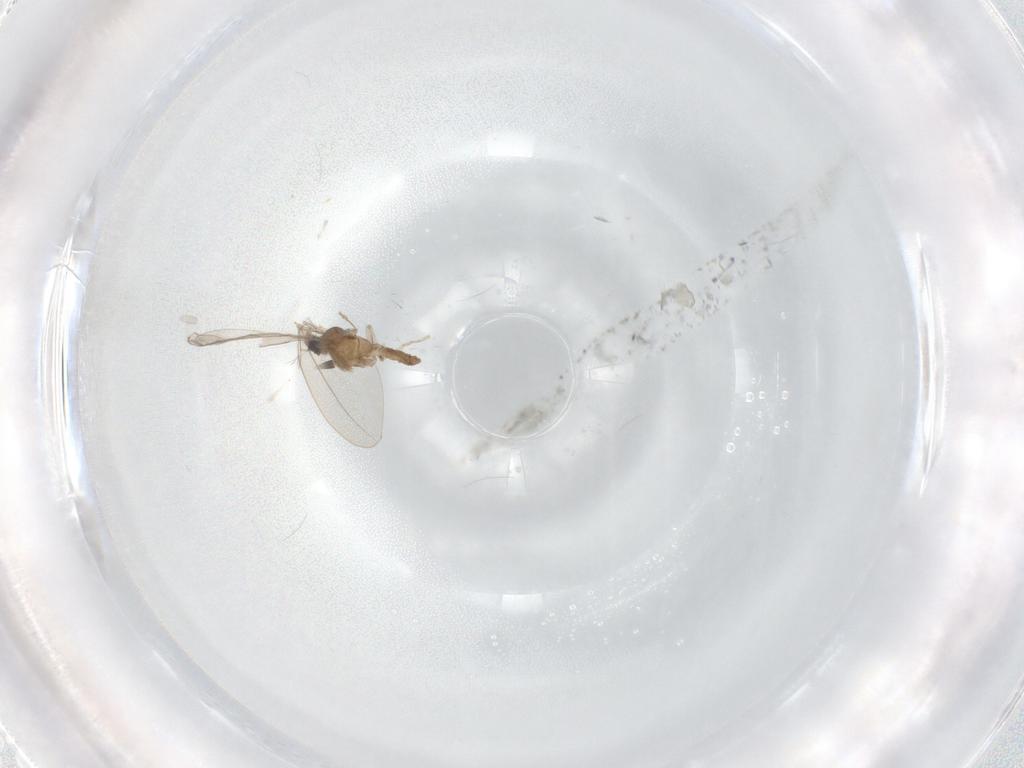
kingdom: Animalia
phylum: Arthropoda
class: Insecta
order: Diptera
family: Cecidomyiidae
